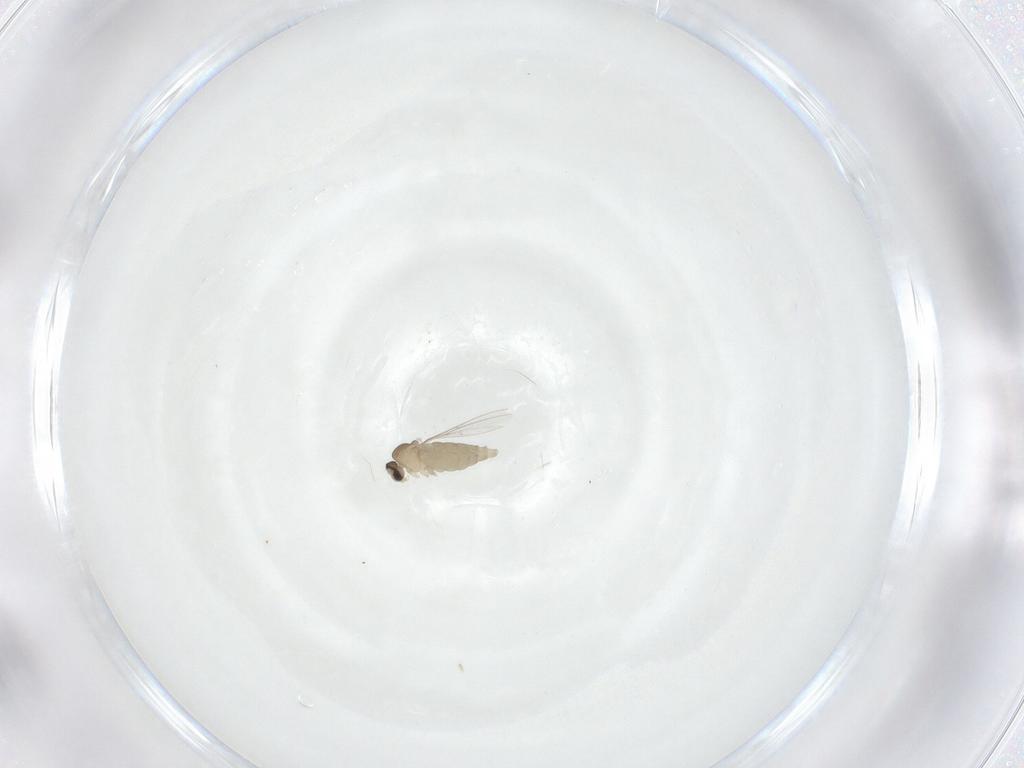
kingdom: Animalia
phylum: Arthropoda
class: Insecta
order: Diptera
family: Cecidomyiidae
